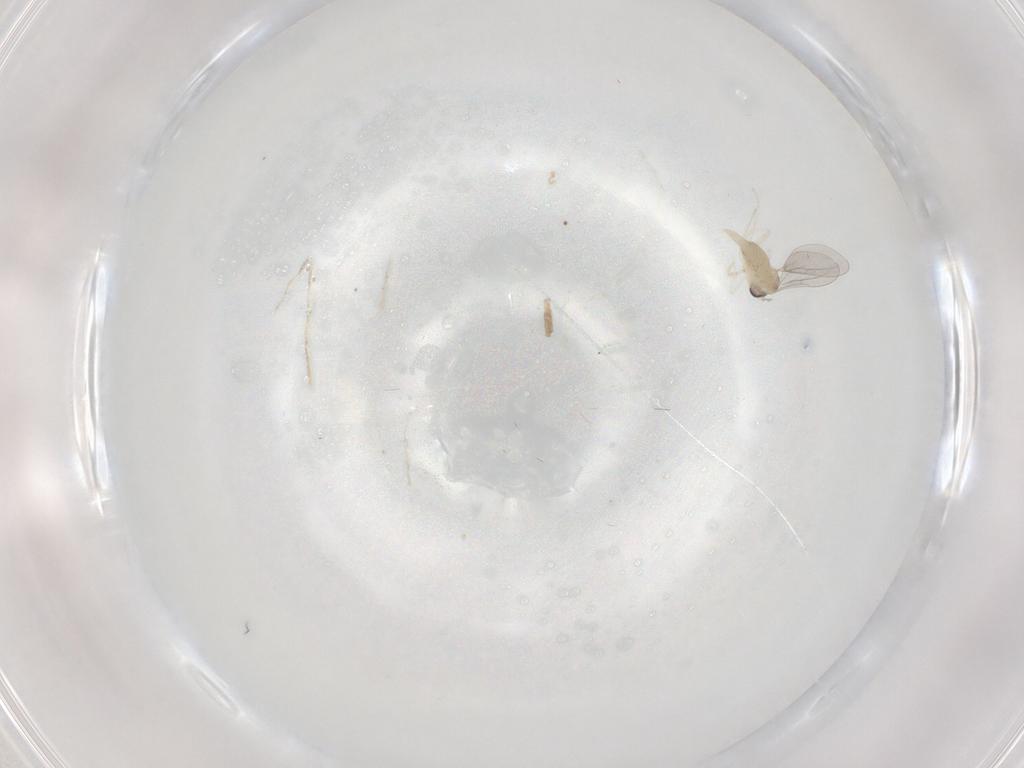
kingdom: Animalia
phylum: Arthropoda
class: Insecta
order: Diptera
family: Cecidomyiidae
